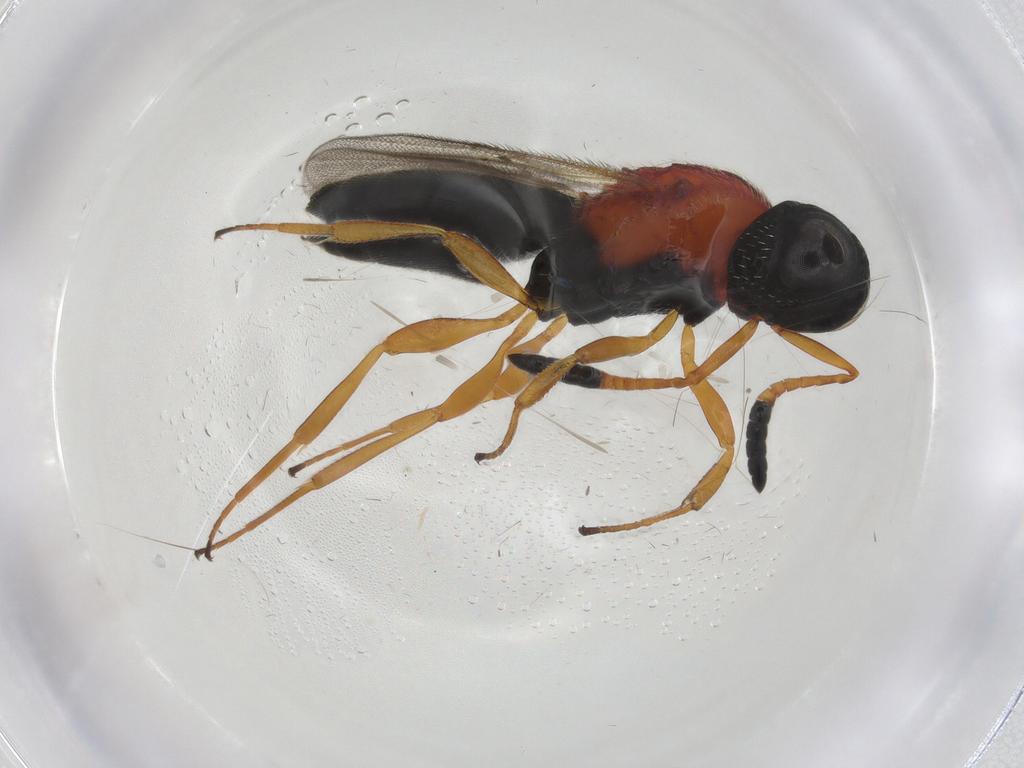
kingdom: Animalia
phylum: Arthropoda
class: Insecta
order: Hymenoptera
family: Scelionidae
